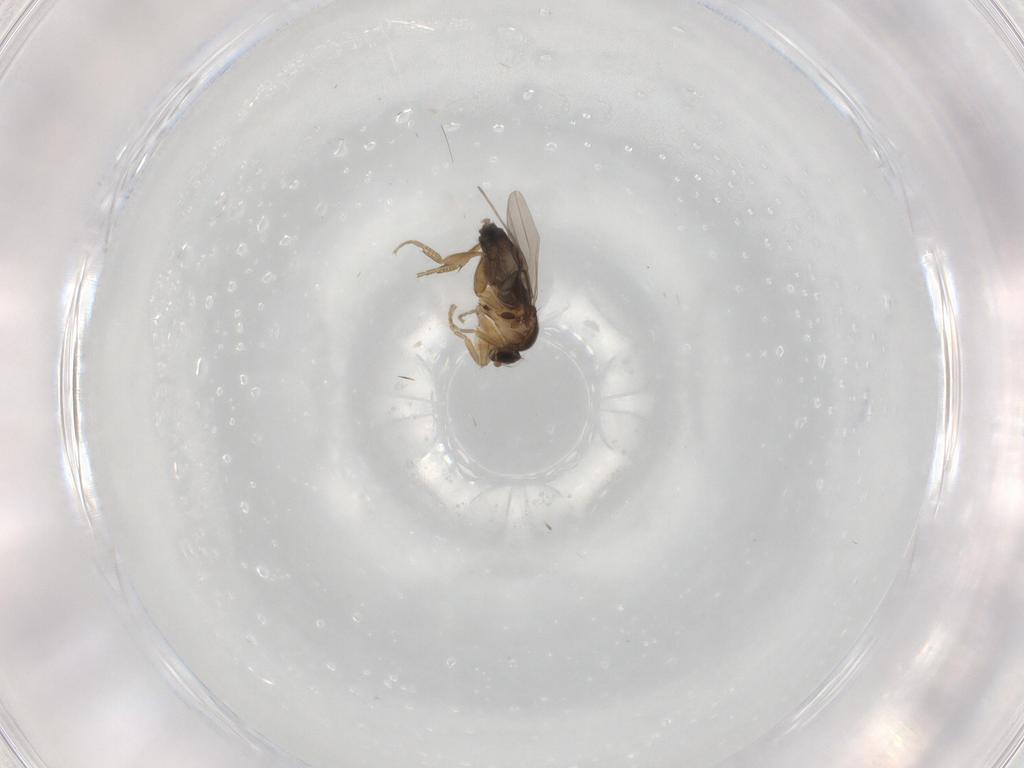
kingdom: Animalia
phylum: Arthropoda
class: Insecta
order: Diptera
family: Phoridae
